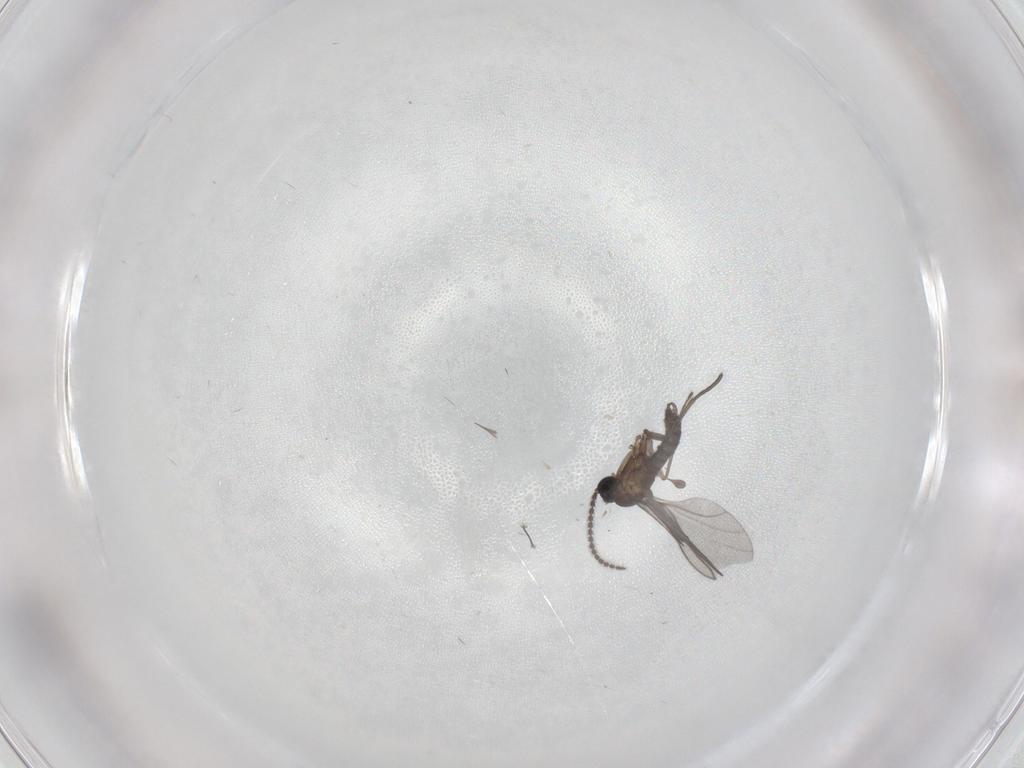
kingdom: Animalia
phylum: Arthropoda
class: Insecta
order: Diptera
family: Sciaridae
